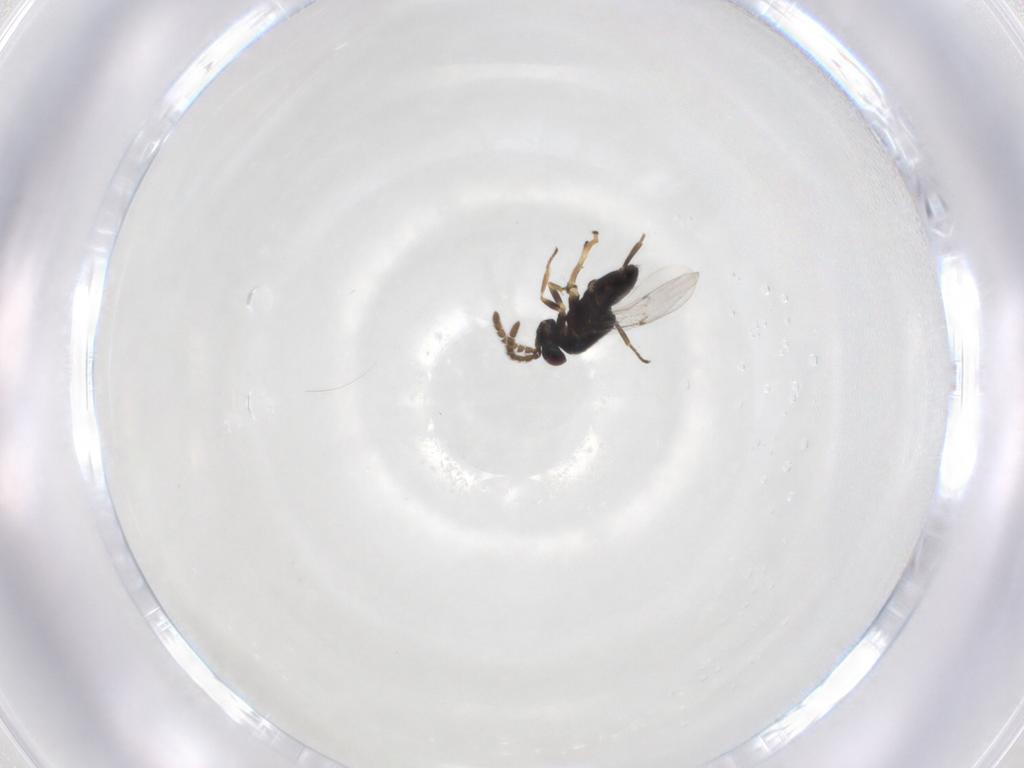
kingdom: Animalia
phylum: Arthropoda
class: Insecta
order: Hymenoptera
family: Encyrtidae
